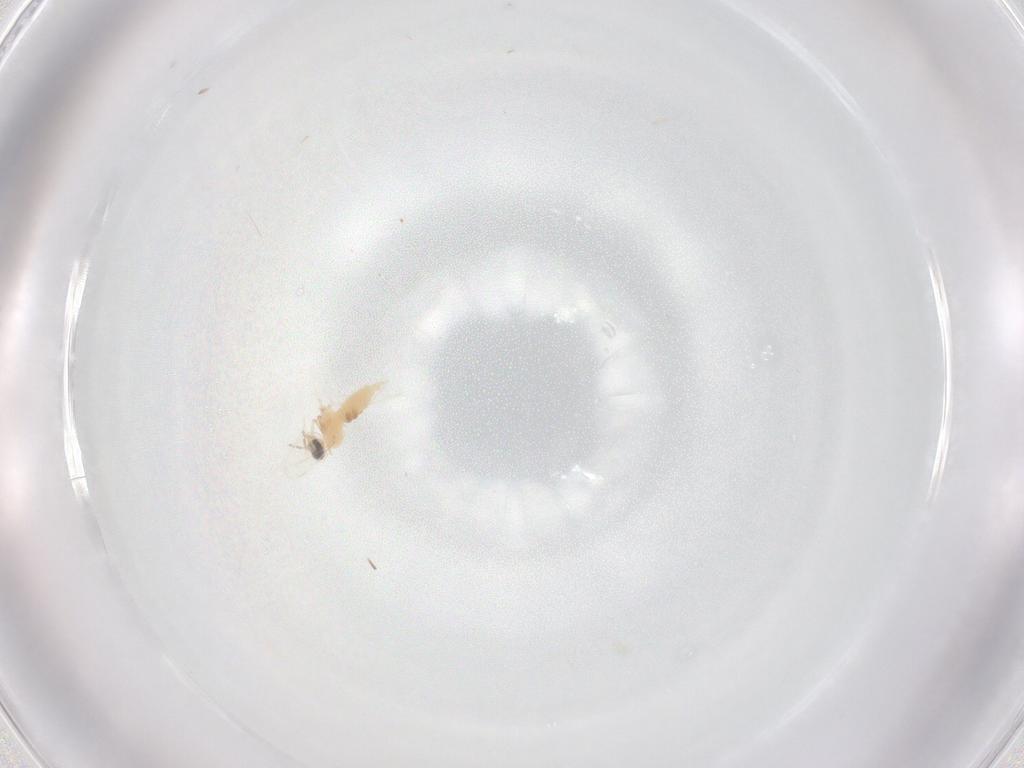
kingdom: Animalia
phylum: Arthropoda
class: Insecta
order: Diptera
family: Cecidomyiidae
